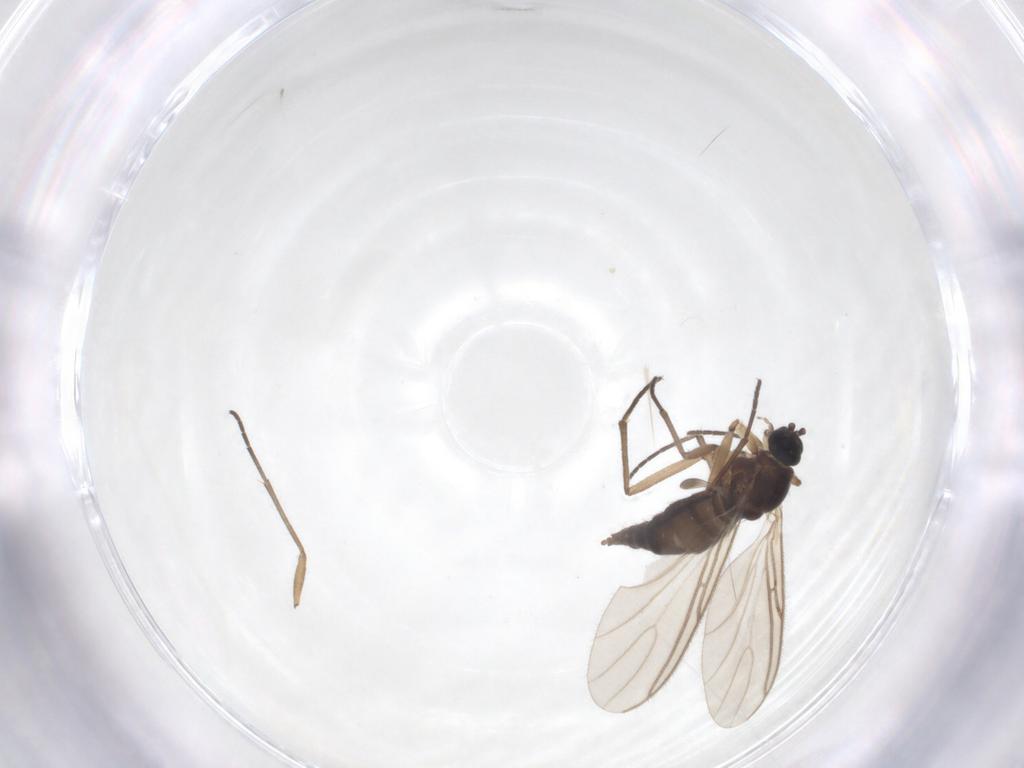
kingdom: Animalia
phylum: Arthropoda
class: Insecta
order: Diptera
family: Sciaridae
